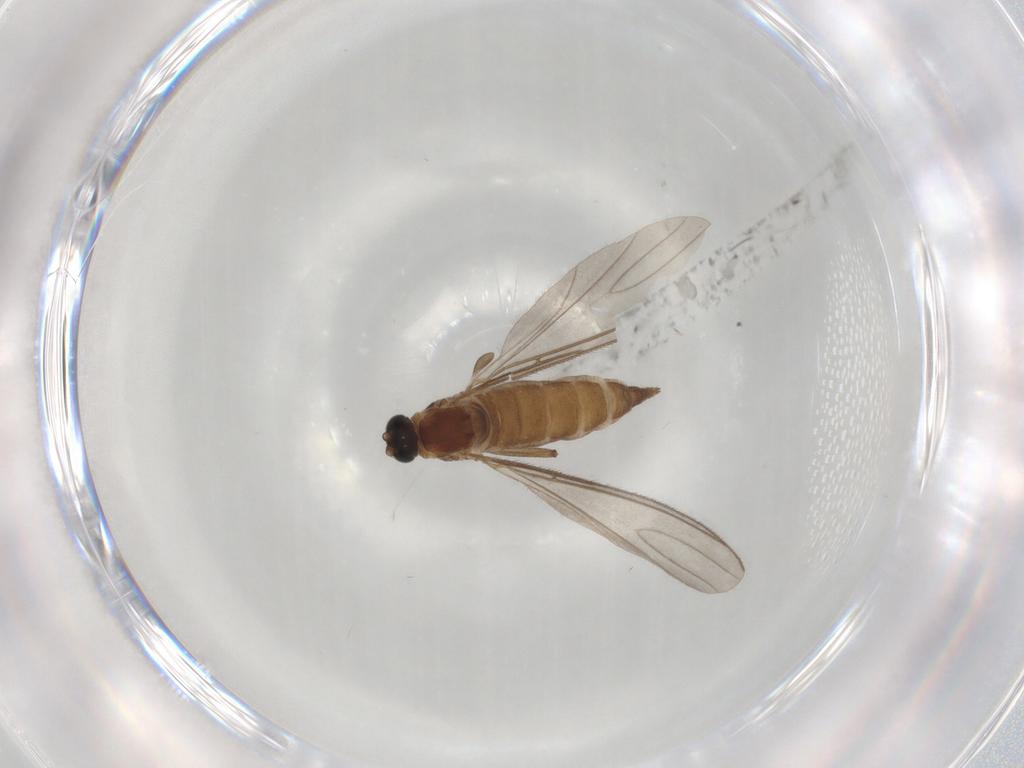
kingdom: Animalia
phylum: Arthropoda
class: Insecta
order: Diptera
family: Sciaridae
